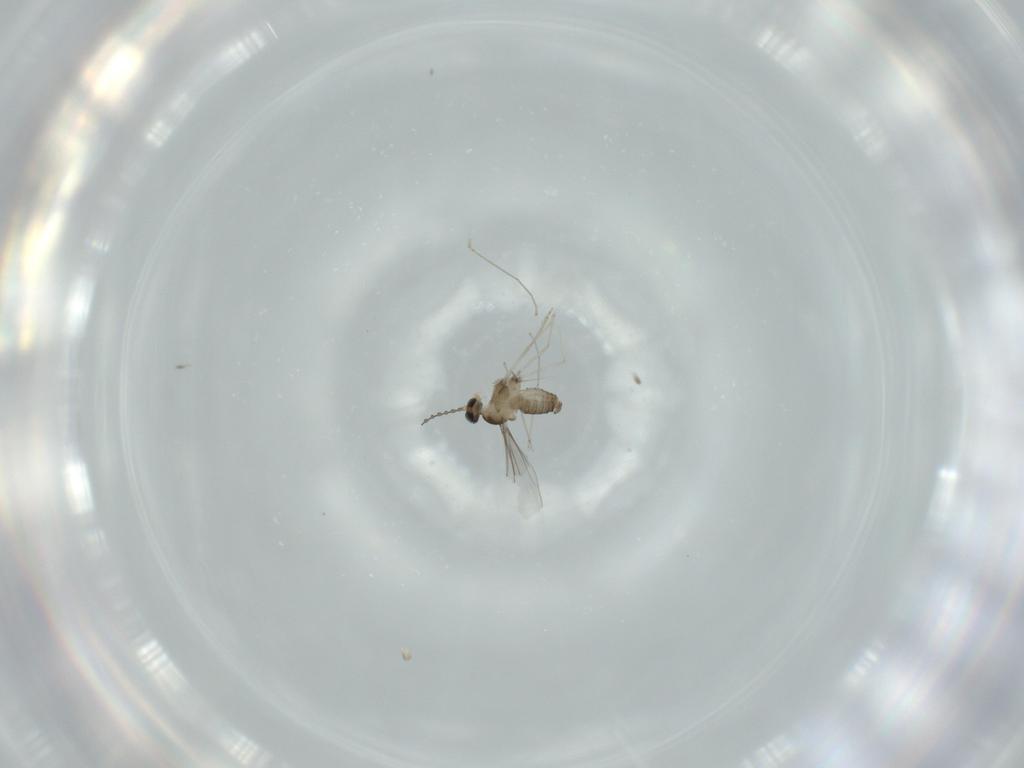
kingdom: Animalia
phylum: Arthropoda
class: Insecta
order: Diptera
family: Cecidomyiidae
